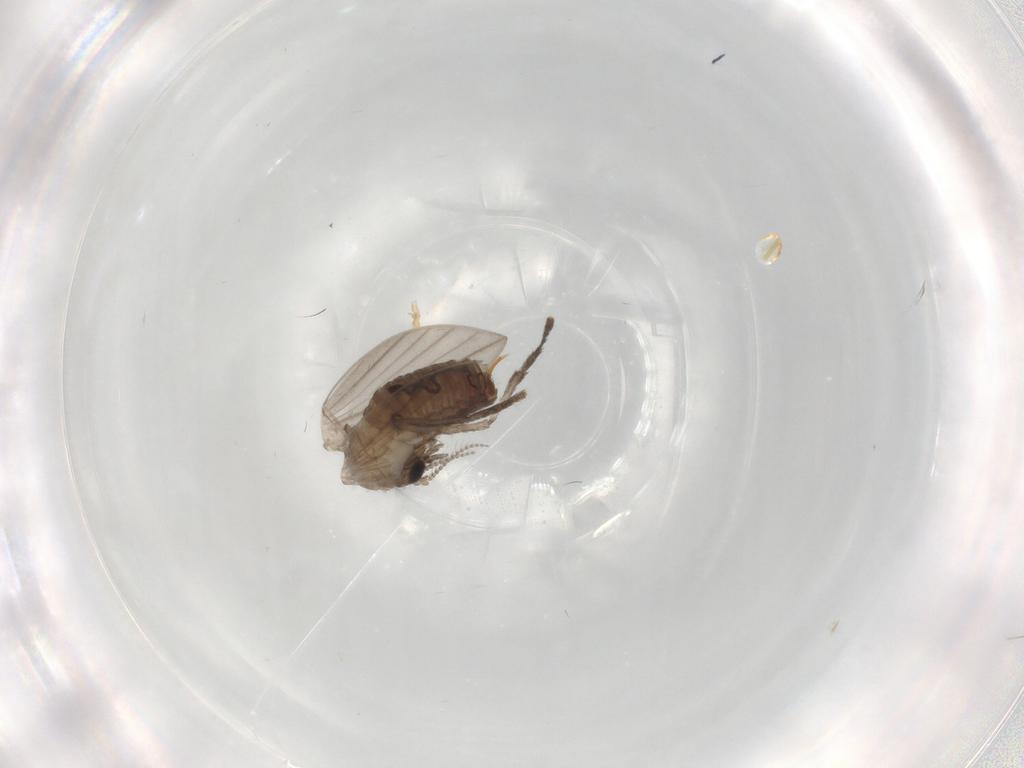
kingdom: Animalia
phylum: Arthropoda
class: Insecta
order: Diptera
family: Psychodidae
